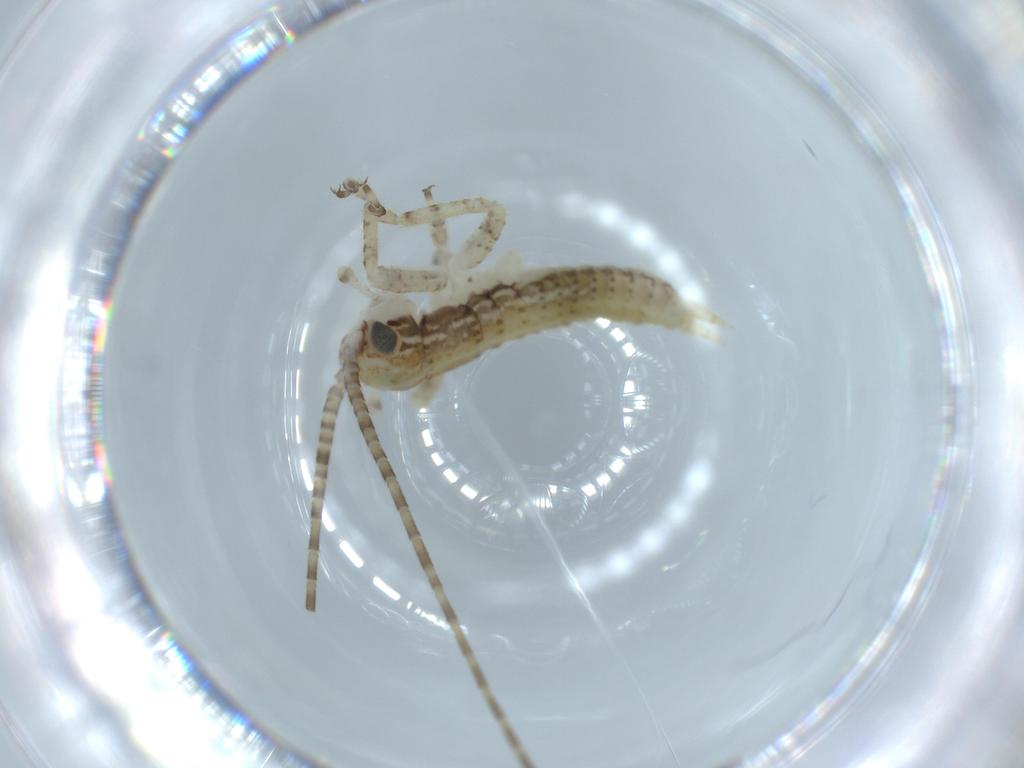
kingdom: Animalia
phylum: Arthropoda
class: Insecta
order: Orthoptera
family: Gryllidae
